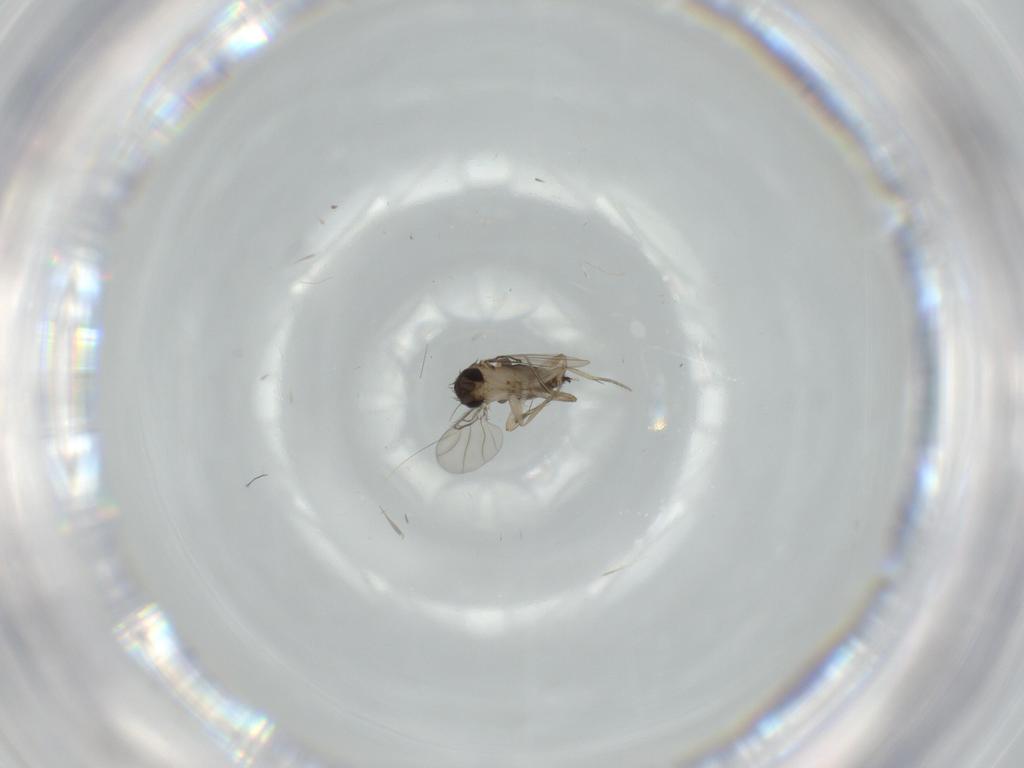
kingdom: Animalia
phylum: Arthropoda
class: Insecta
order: Diptera
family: Phoridae
